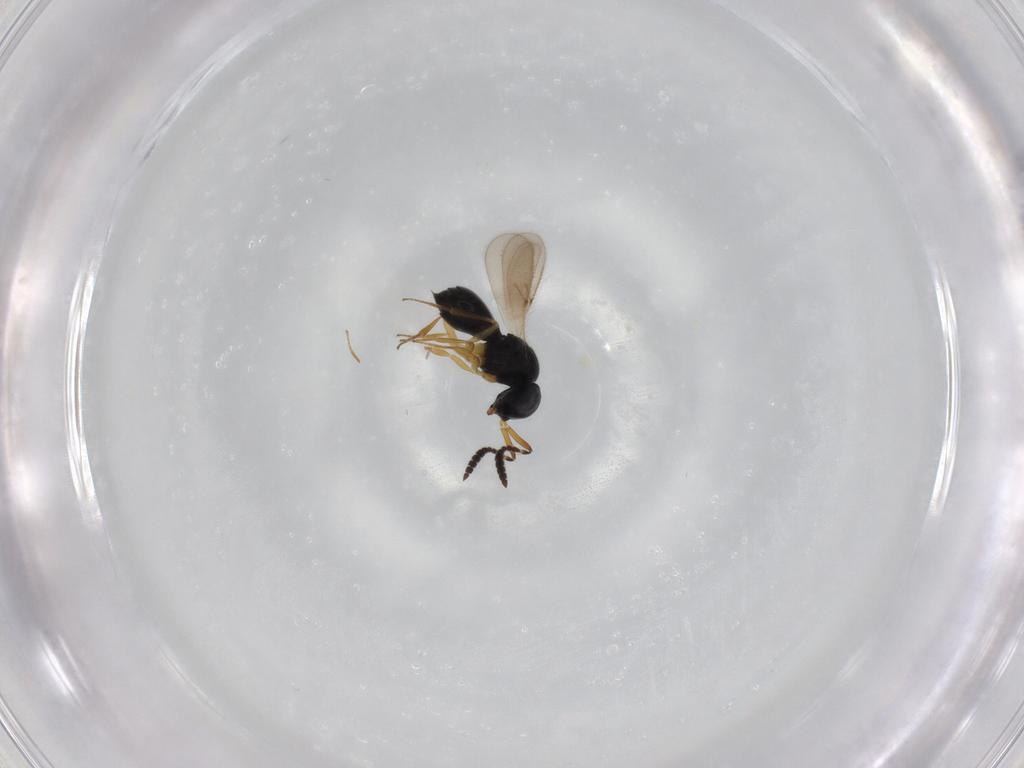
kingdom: Animalia
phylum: Arthropoda
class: Insecta
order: Hymenoptera
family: Scelionidae
